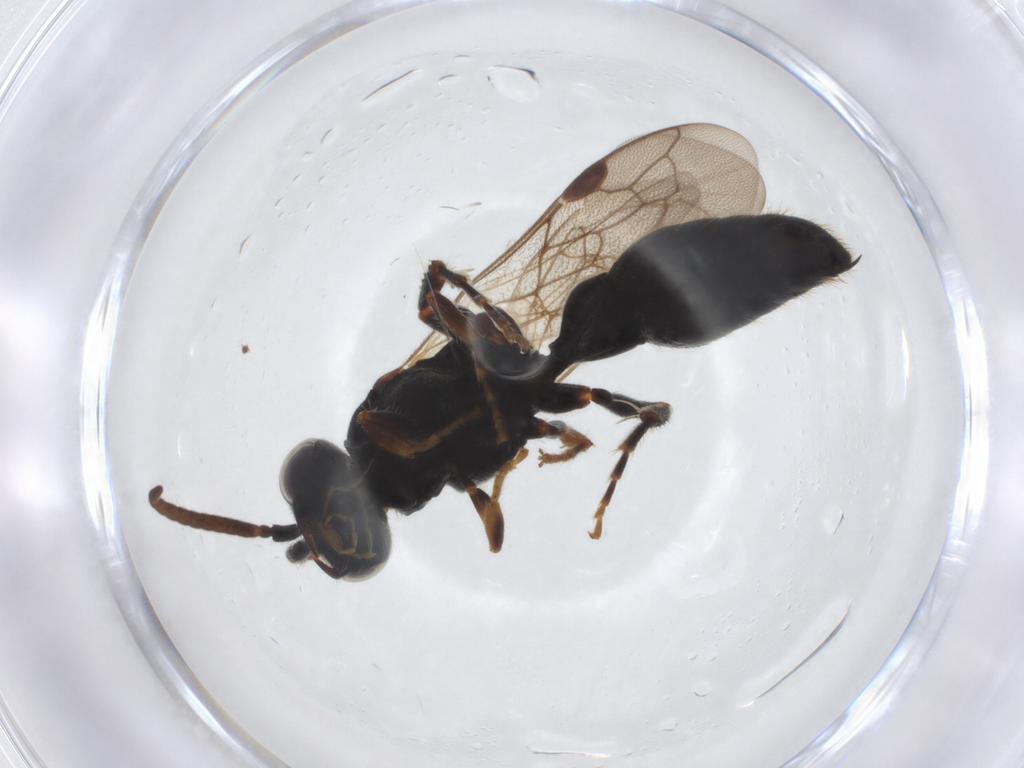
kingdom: Animalia
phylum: Arthropoda
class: Insecta
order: Hymenoptera
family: Tiphiidae
